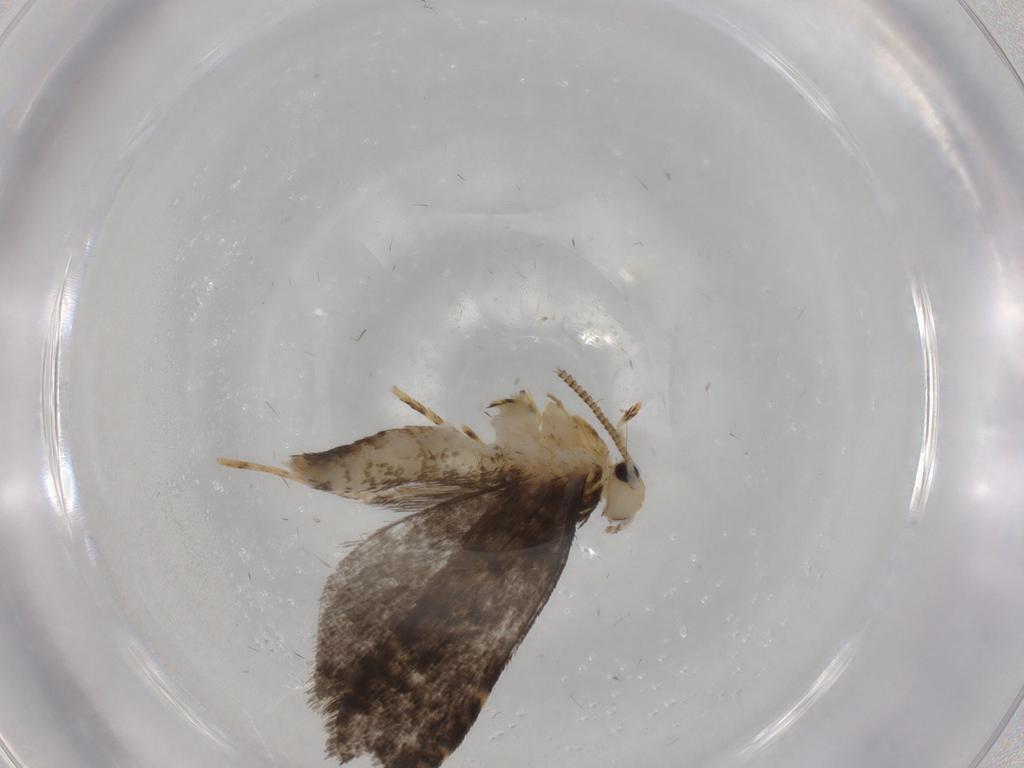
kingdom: Animalia
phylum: Arthropoda
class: Insecta
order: Lepidoptera
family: Tineidae
